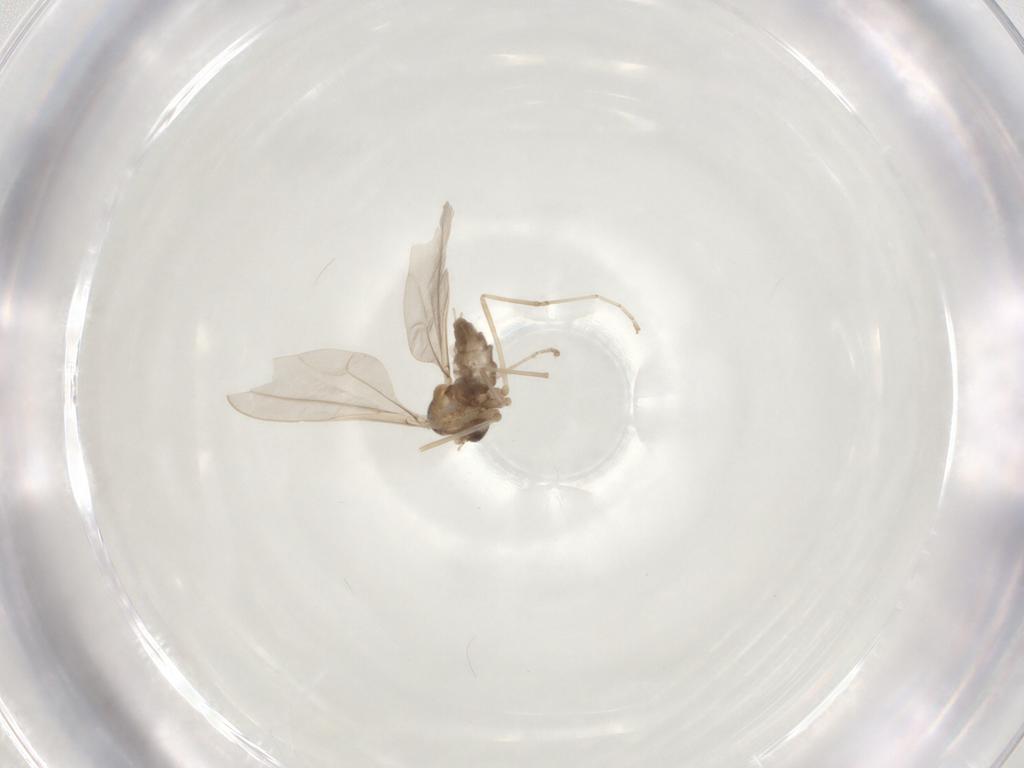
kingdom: Animalia
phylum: Arthropoda
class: Insecta
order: Diptera
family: Cecidomyiidae
